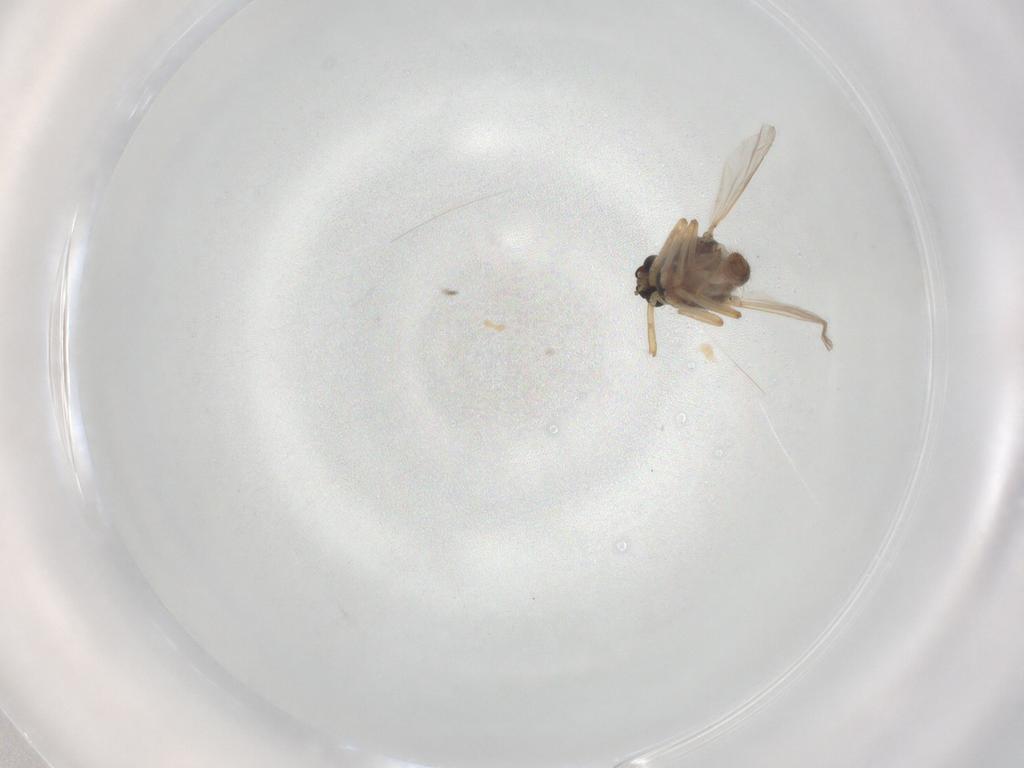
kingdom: Animalia
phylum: Arthropoda
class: Insecta
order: Diptera
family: Ceratopogonidae
